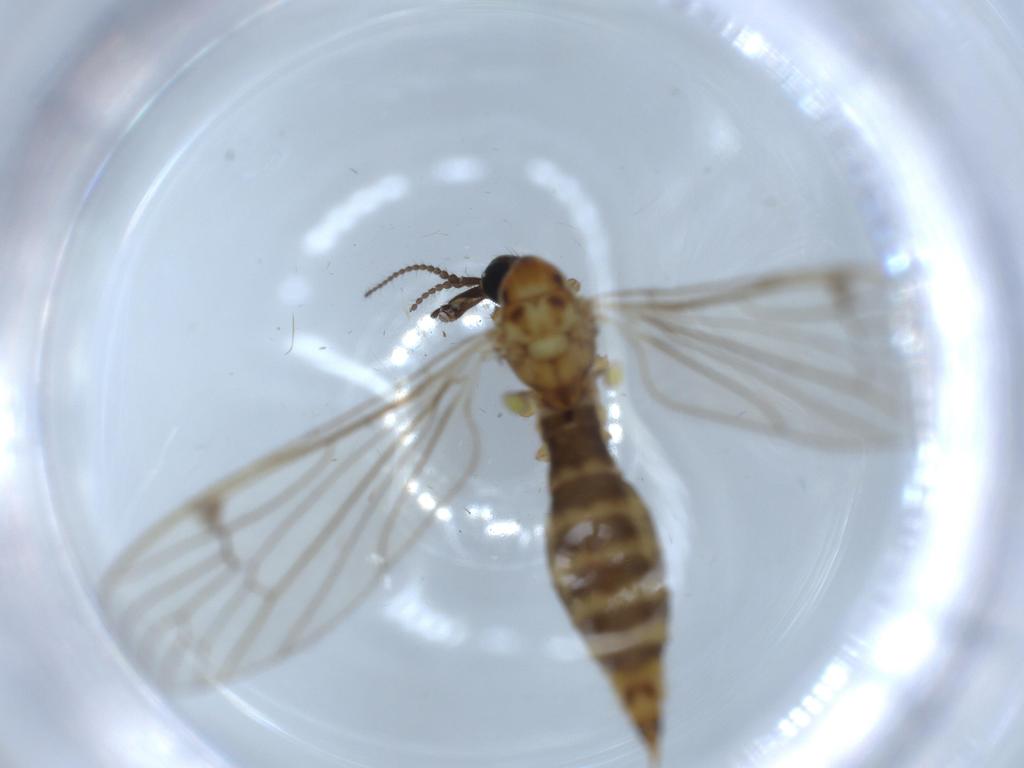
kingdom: Animalia
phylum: Arthropoda
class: Insecta
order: Diptera
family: Limoniidae
